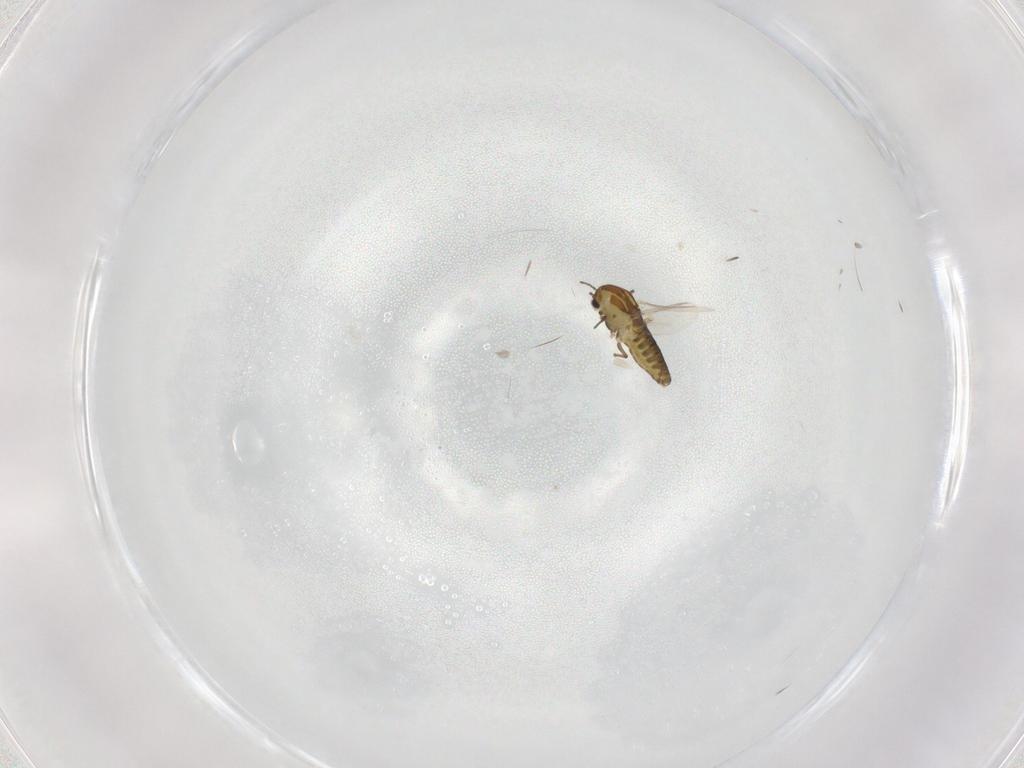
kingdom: Animalia
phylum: Arthropoda
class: Insecta
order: Diptera
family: Chironomidae
